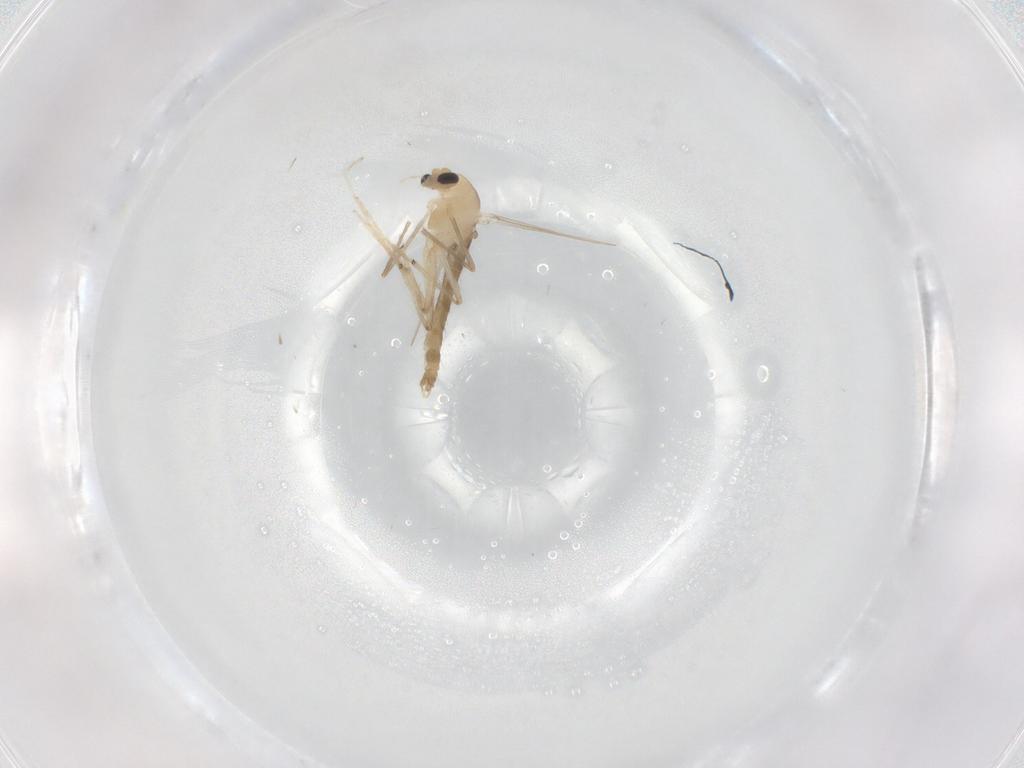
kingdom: Animalia
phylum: Arthropoda
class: Insecta
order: Diptera
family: Chironomidae
